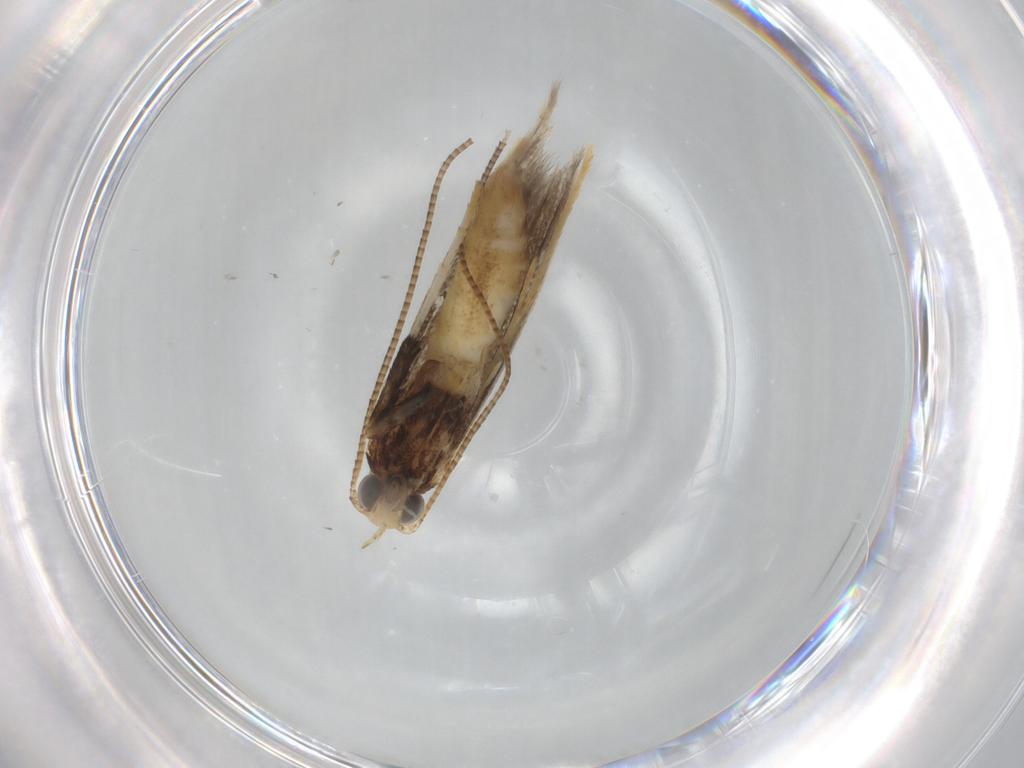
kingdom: Animalia
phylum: Arthropoda
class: Insecta
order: Lepidoptera
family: Gracillariidae
